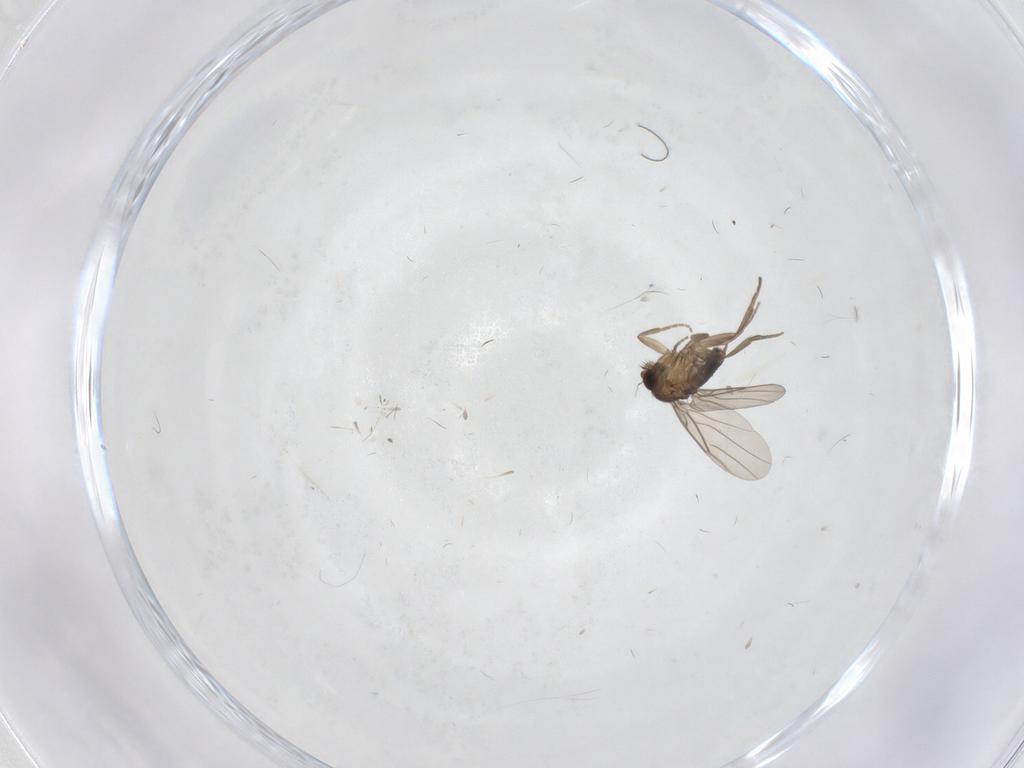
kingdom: Animalia
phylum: Arthropoda
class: Insecta
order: Diptera
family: Phoridae
